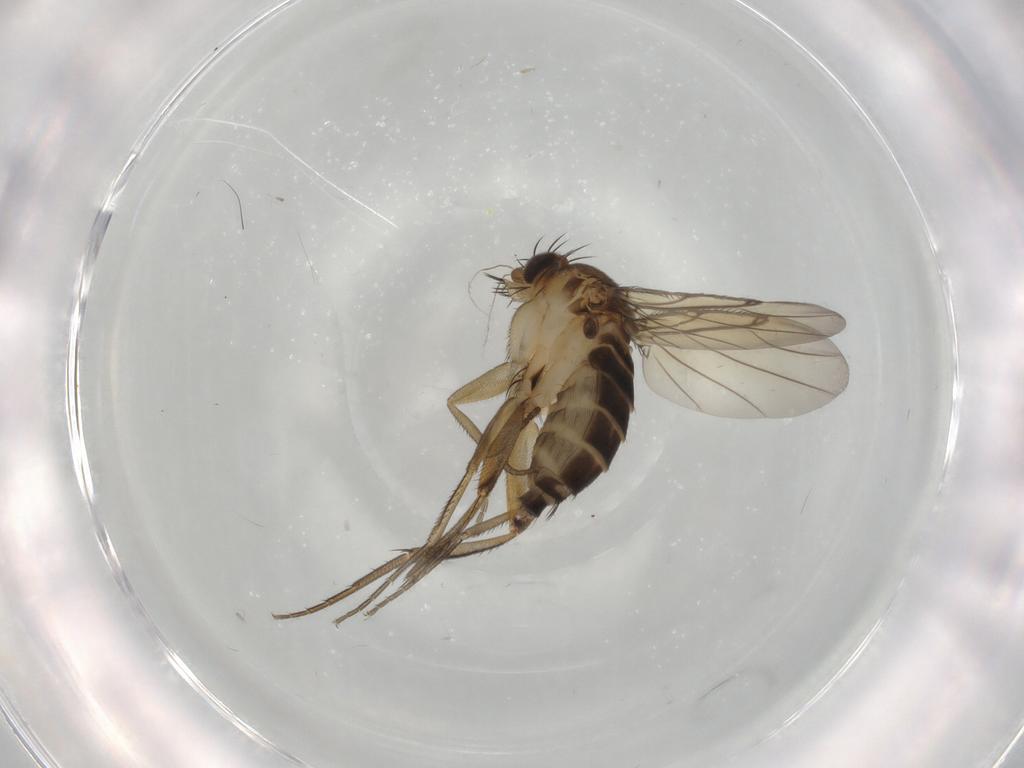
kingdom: Animalia
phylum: Arthropoda
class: Insecta
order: Diptera
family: Phoridae
